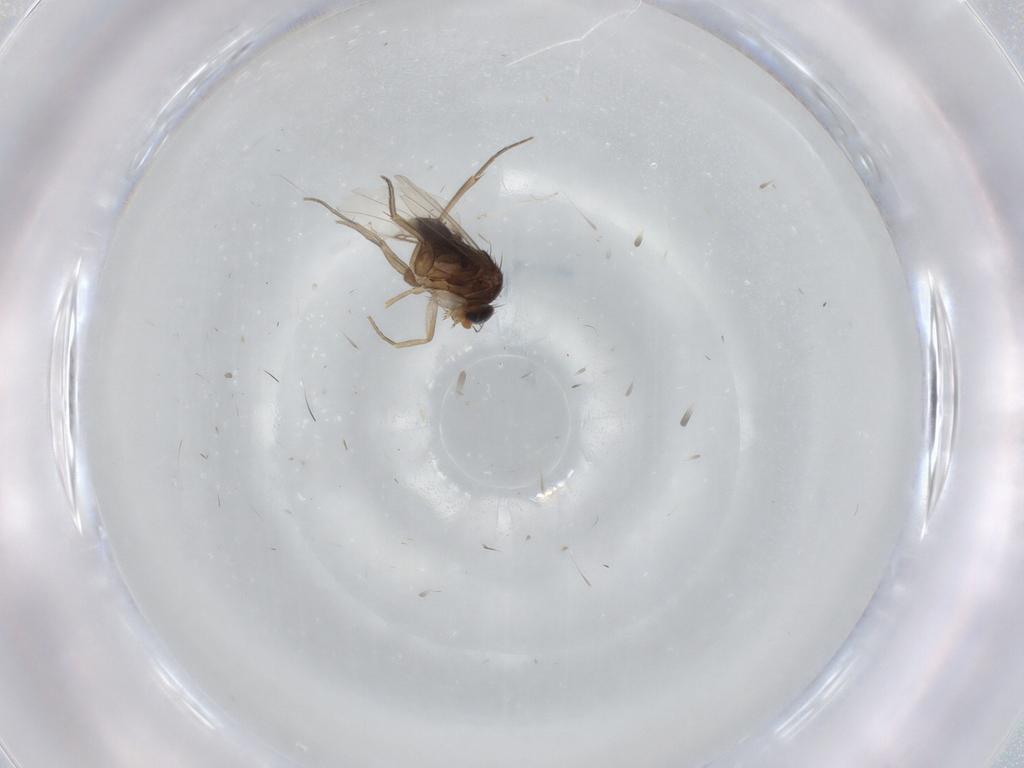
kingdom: Animalia
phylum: Arthropoda
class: Insecta
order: Diptera
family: Phoridae
